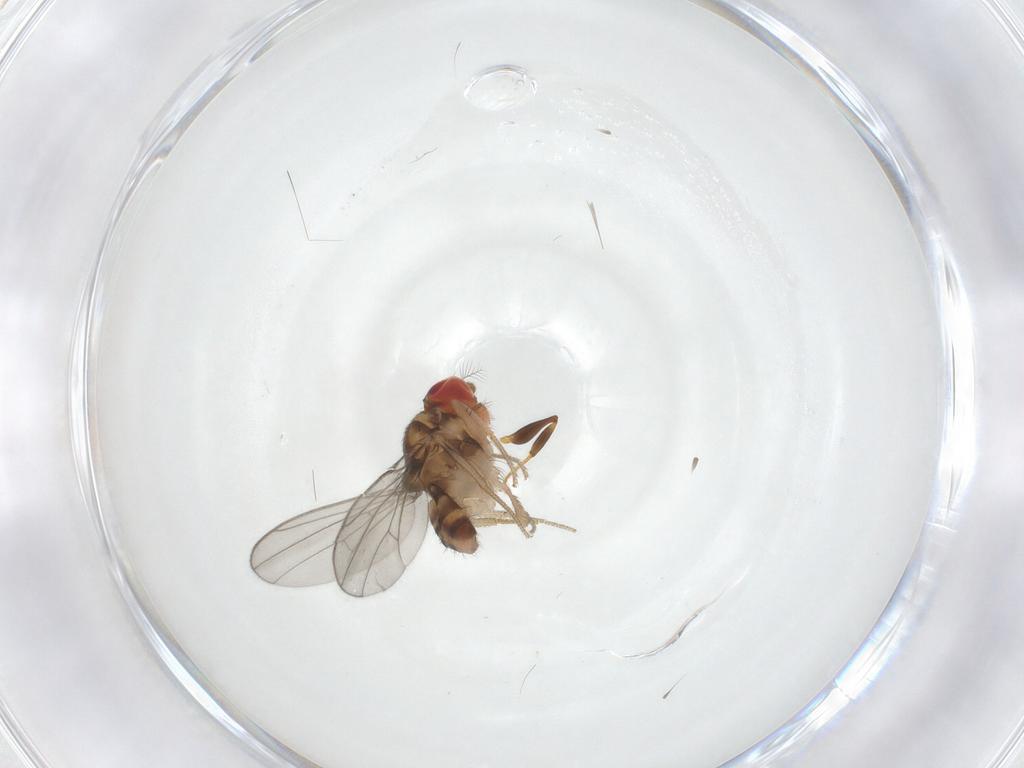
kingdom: Animalia
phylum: Arthropoda
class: Insecta
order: Diptera
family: Drosophilidae
